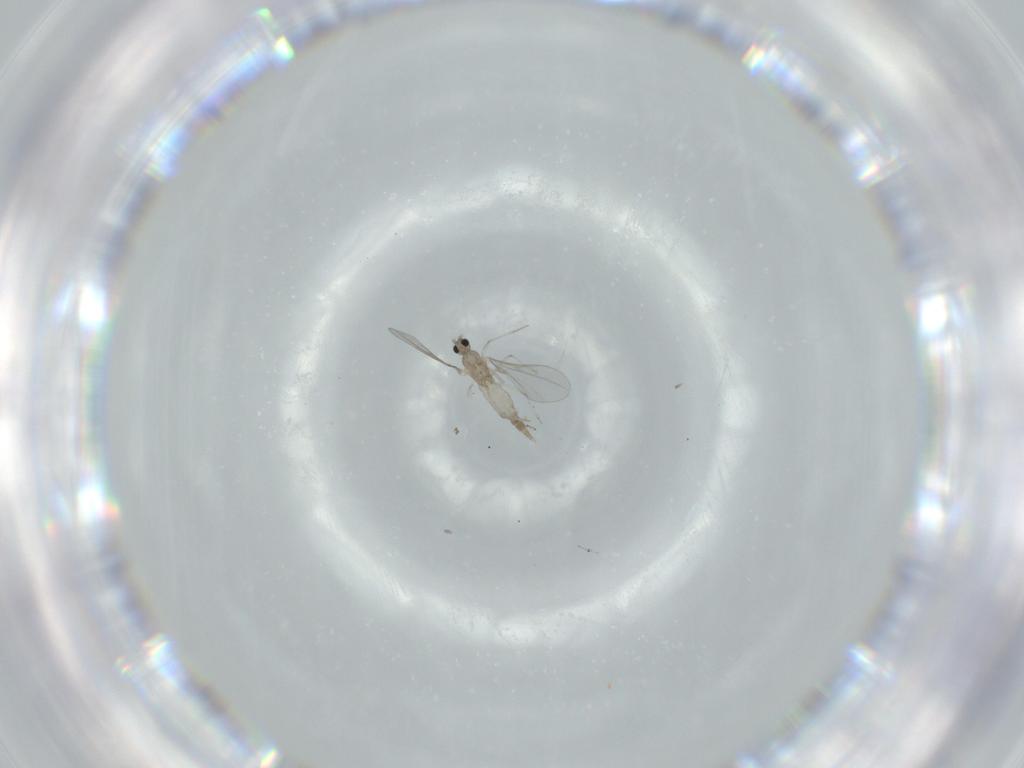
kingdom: Animalia
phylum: Arthropoda
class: Insecta
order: Diptera
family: Cecidomyiidae
